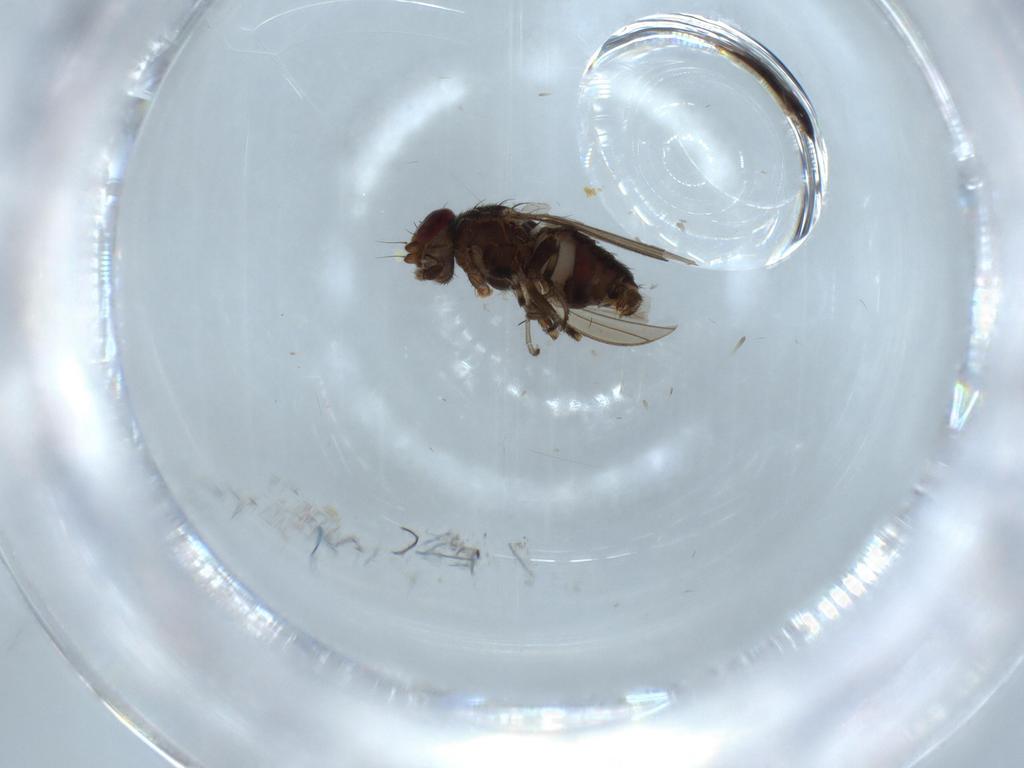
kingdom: Animalia
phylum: Arthropoda
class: Insecta
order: Diptera
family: Heleomyzidae
